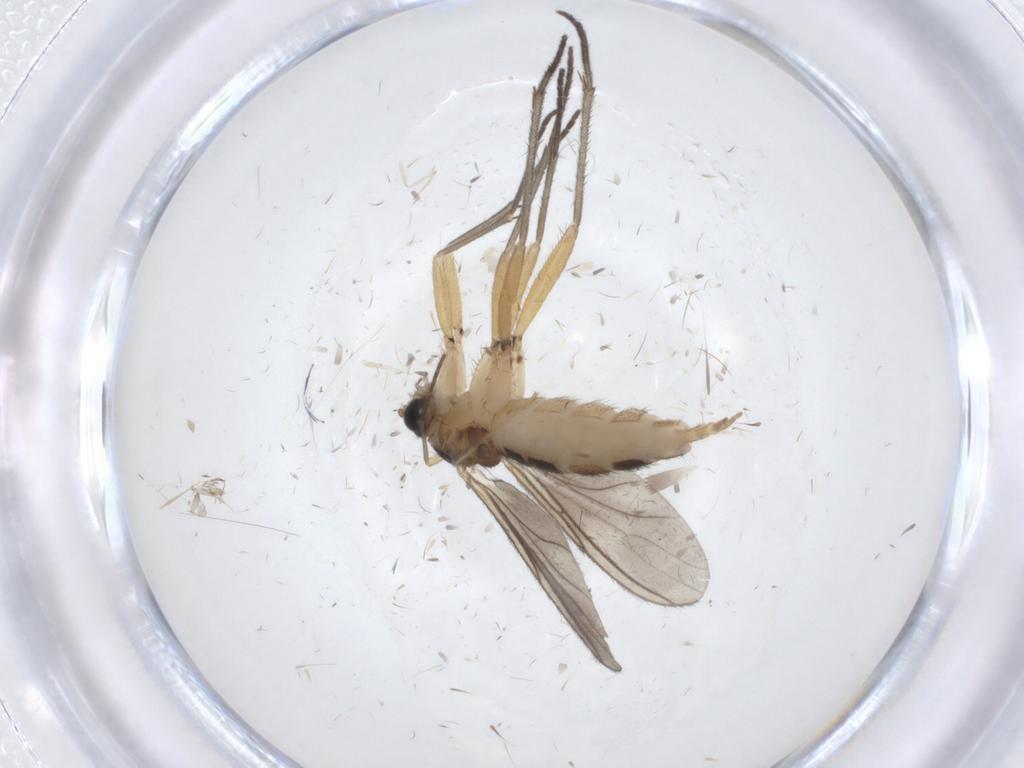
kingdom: Animalia
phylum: Arthropoda
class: Insecta
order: Diptera
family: Sciaridae
